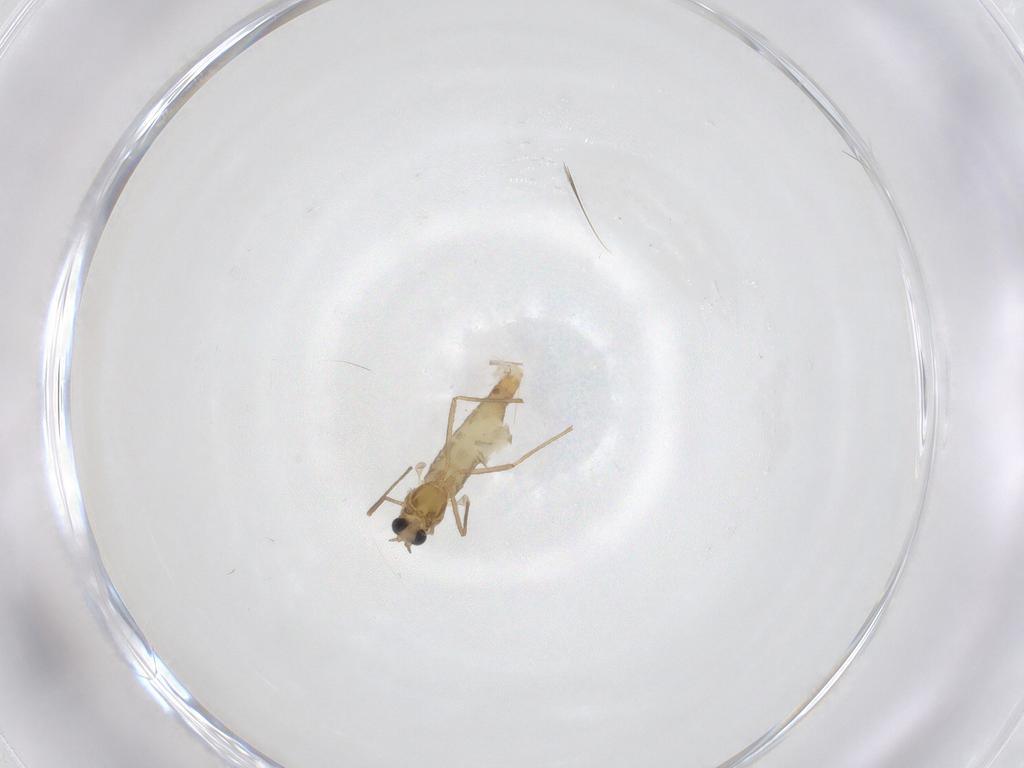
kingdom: Animalia
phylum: Arthropoda
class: Insecta
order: Diptera
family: Chironomidae
